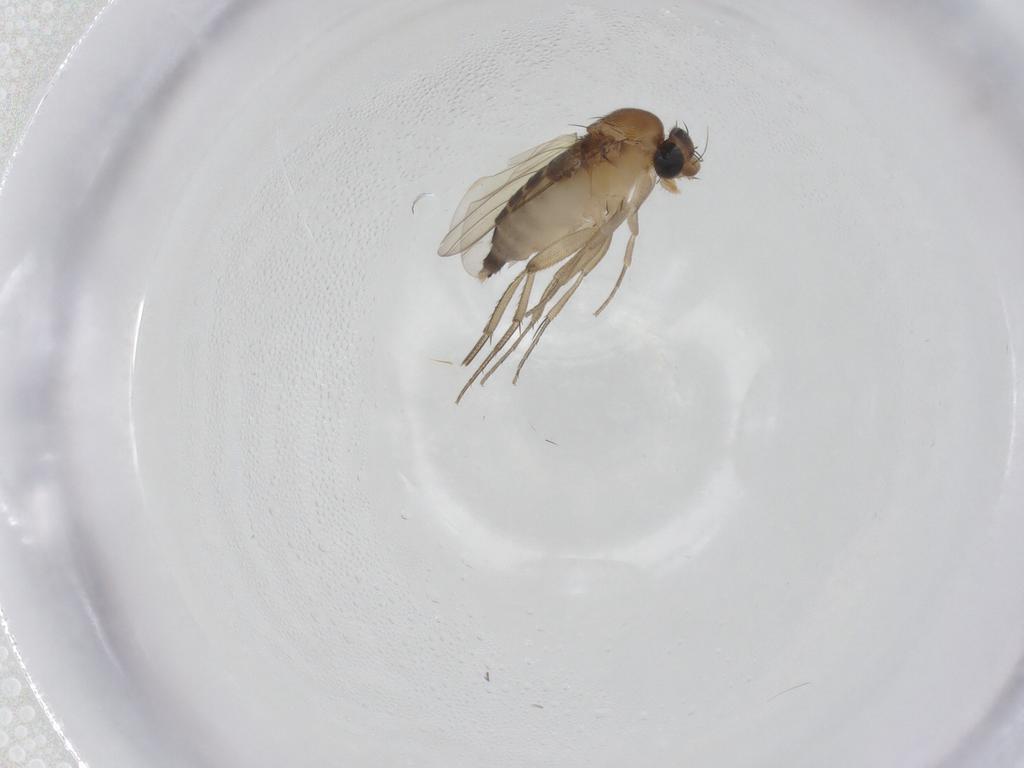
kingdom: Animalia
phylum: Arthropoda
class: Insecta
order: Diptera
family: Phoridae
